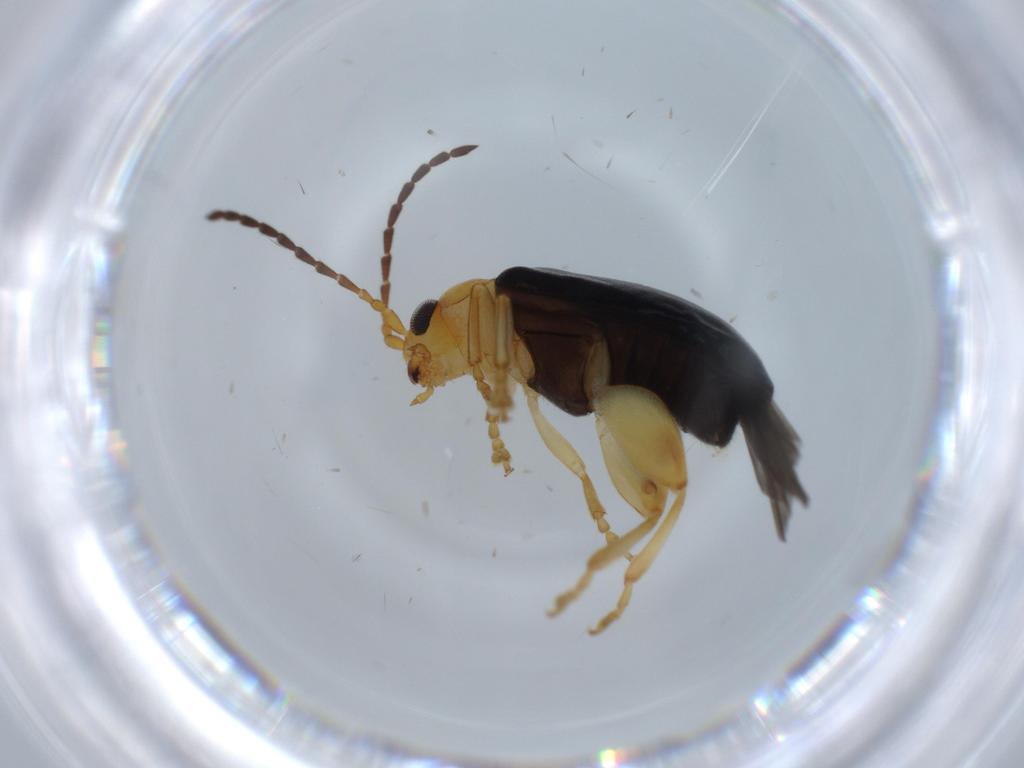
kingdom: Animalia
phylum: Arthropoda
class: Insecta
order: Coleoptera
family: Chrysomelidae
